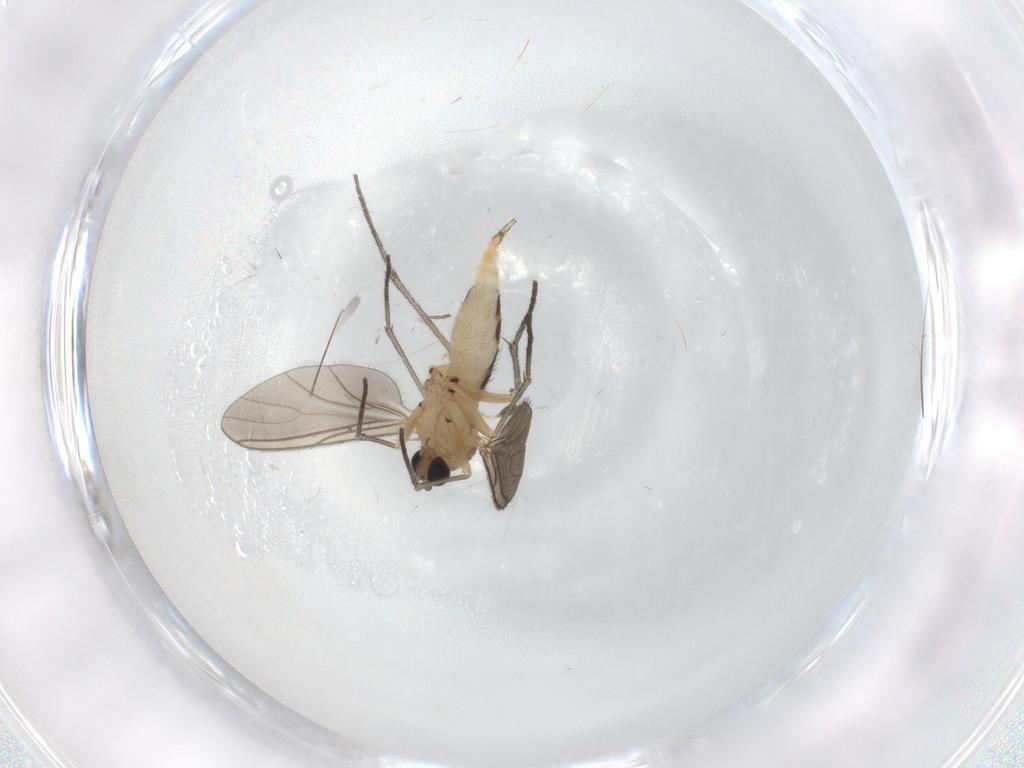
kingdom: Animalia
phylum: Arthropoda
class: Insecta
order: Diptera
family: Sciaridae
